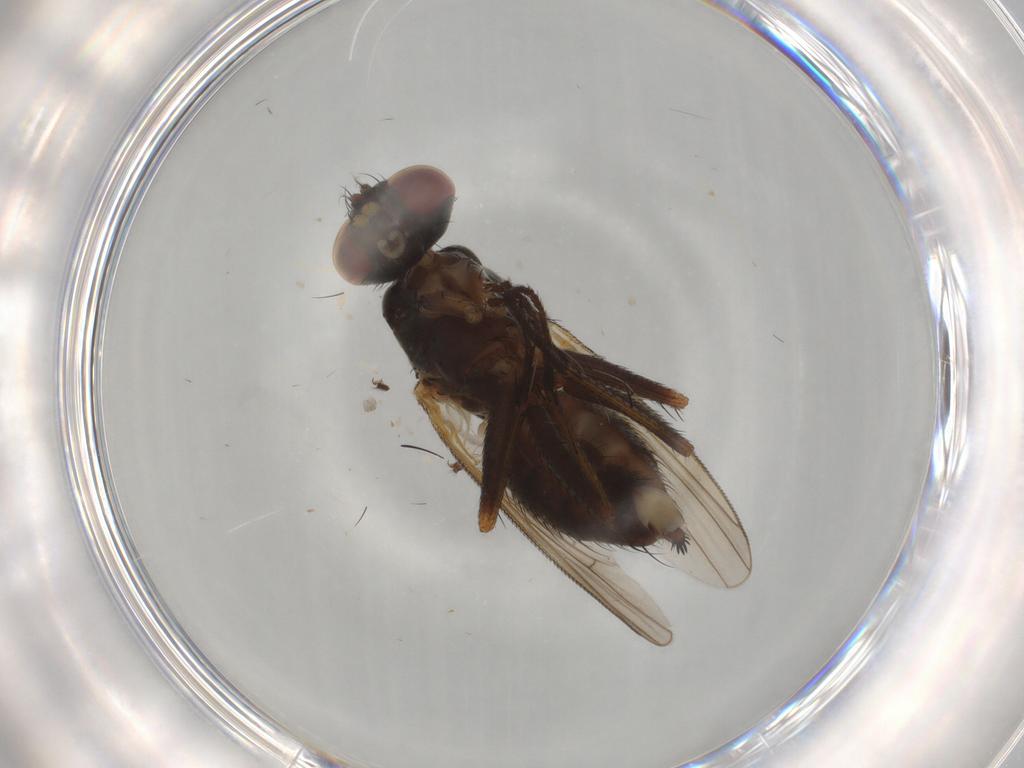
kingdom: Animalia
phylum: Arthropoda
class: Insecta
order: Diptera
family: Muscidae
